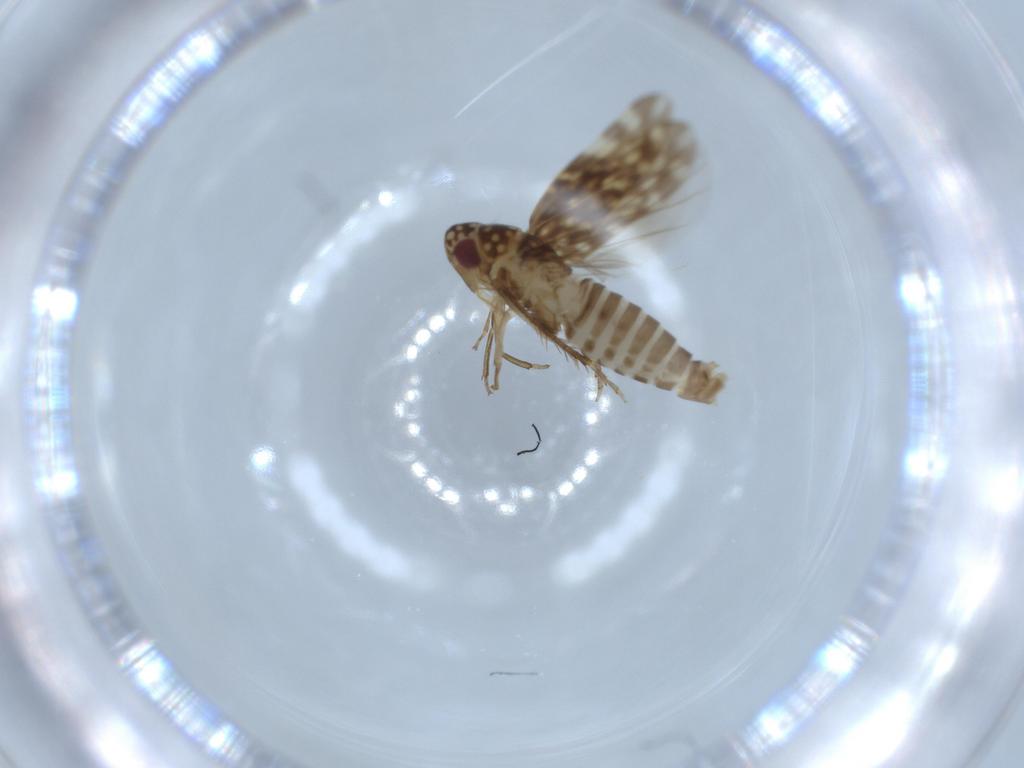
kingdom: Animalia
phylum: Arthropoda
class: Insecta
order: Hemiptera
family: Cicadellidae
